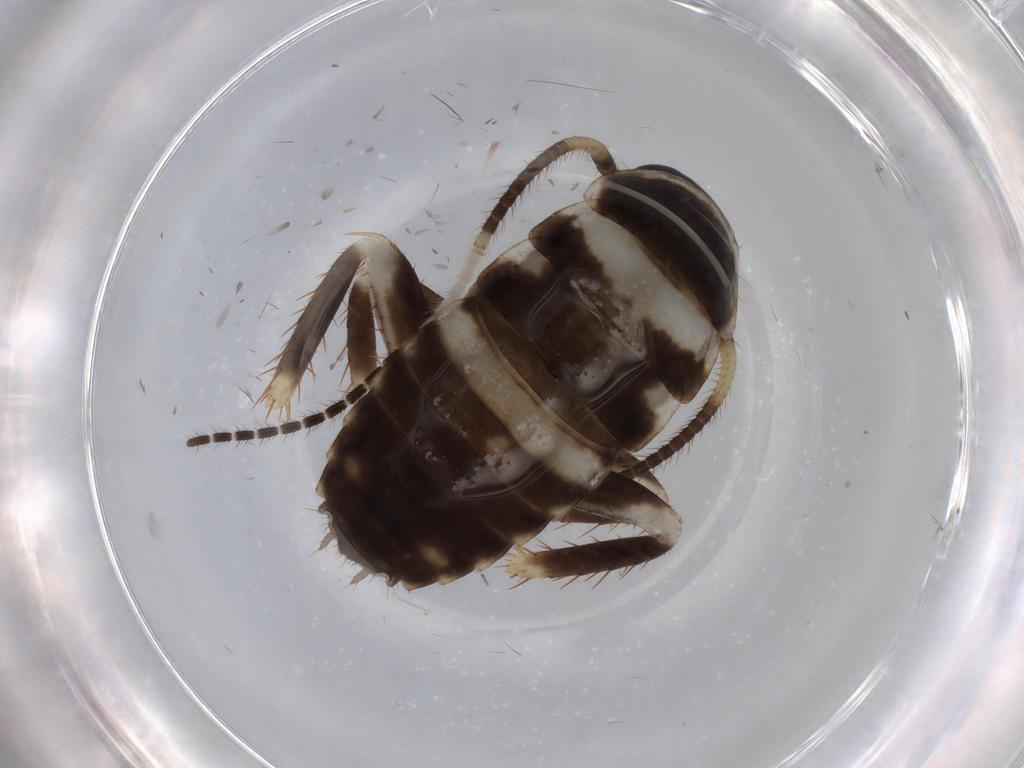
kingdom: Animalia
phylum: Arthropoda
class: Insecta
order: Blattodea
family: Ectobiidae
